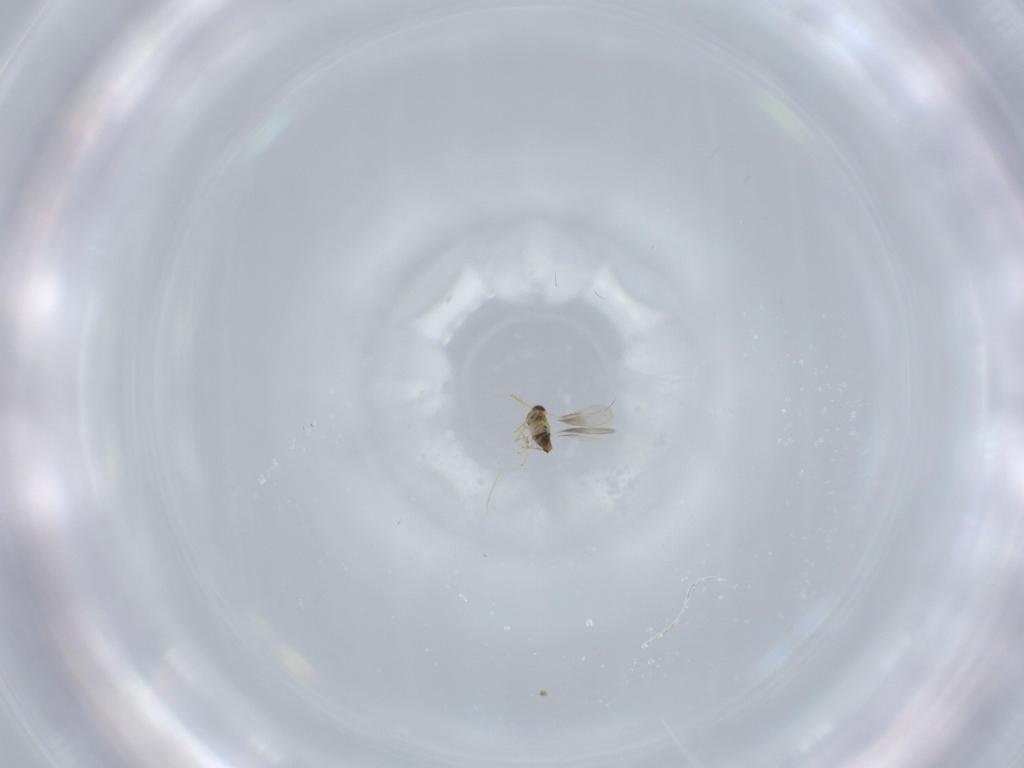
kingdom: Animalia
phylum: Arthropoda
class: Insecta
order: Hymenoptera
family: Aphelinidae
